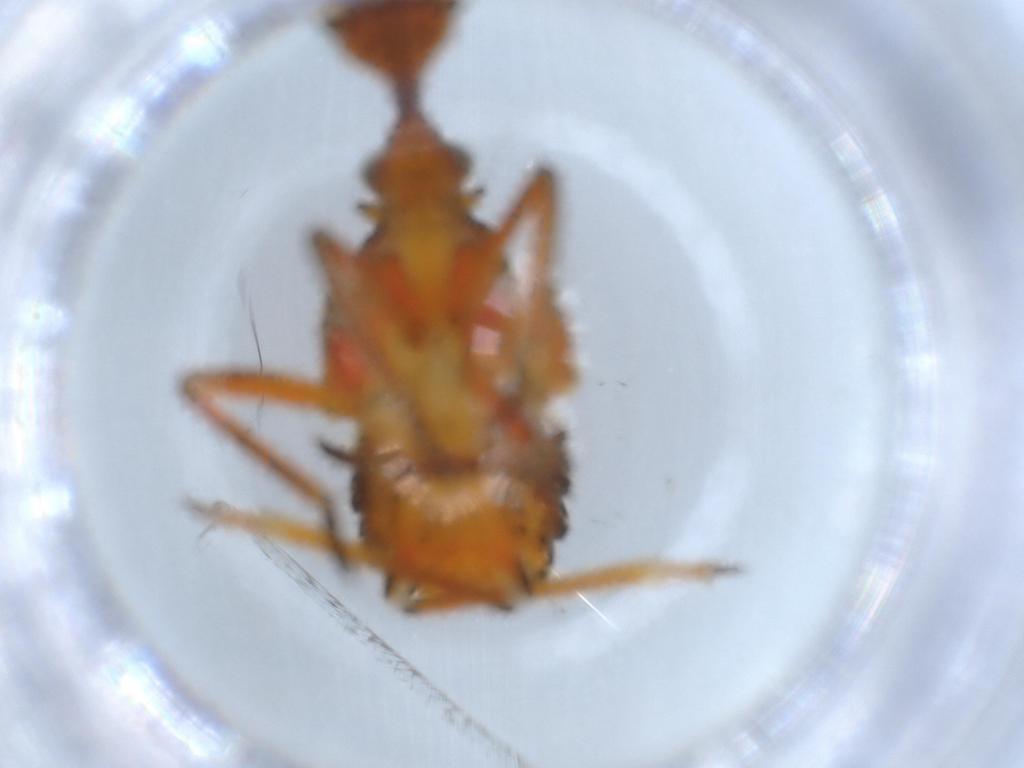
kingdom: Animalia
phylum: Arthropoda
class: Insecta
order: Hemiptera
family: Fulgoridae
